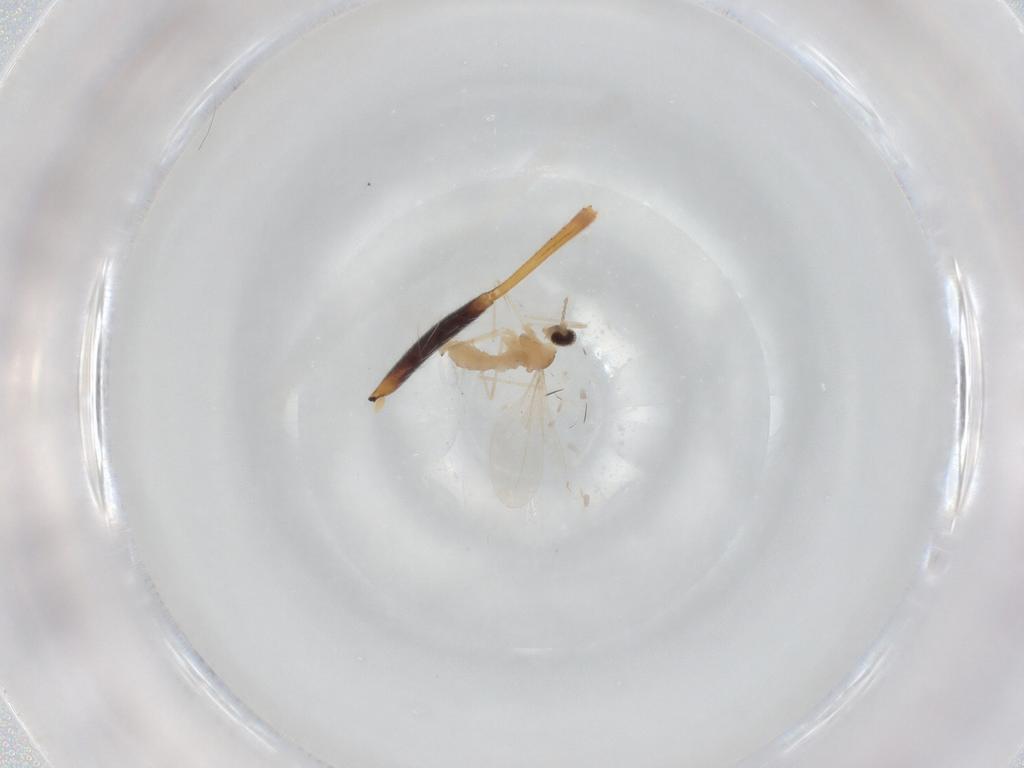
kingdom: Animalia
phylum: Arthropoda
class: Insecta
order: Diptera
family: Cecidomyiidae
